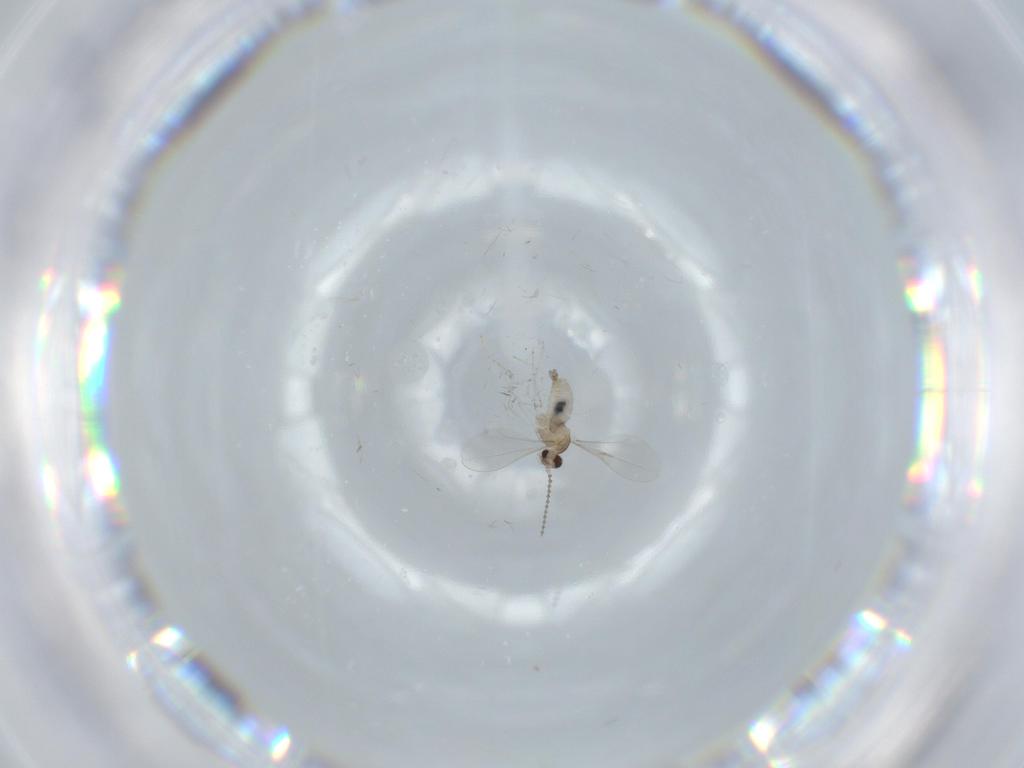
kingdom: Animalia
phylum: Arthropoda
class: Insecta
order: Diptera
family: Cecidomyiidae
